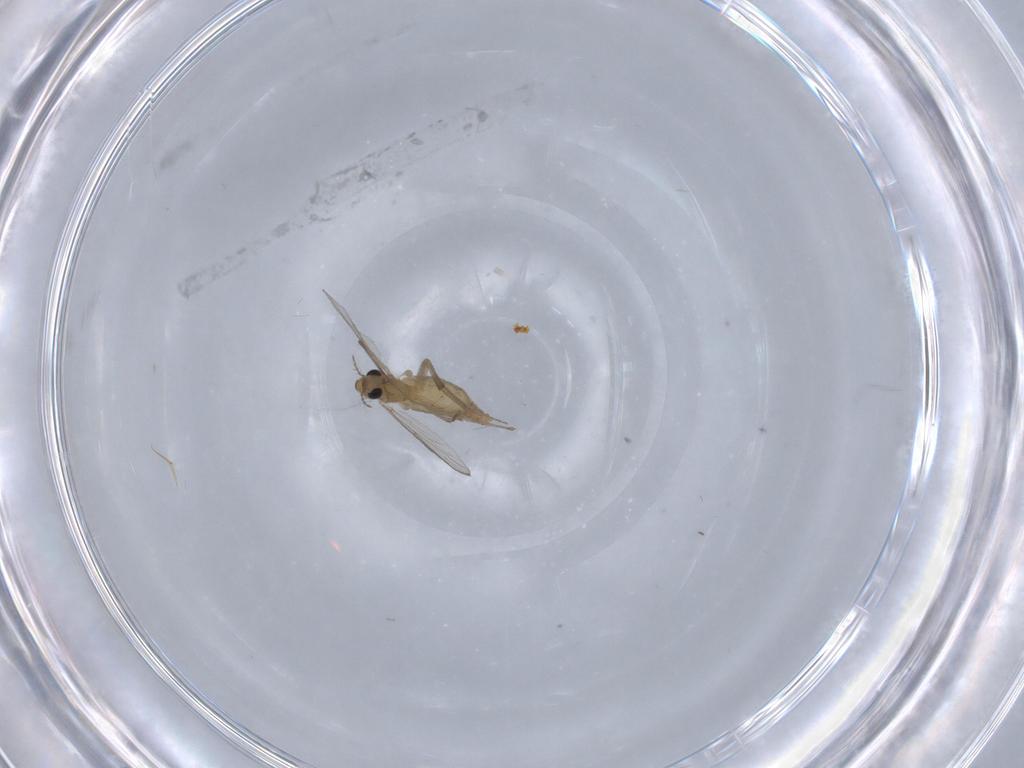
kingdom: Animalia
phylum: Arthropoda
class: Insecta
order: Diptera
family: Chironomidae
